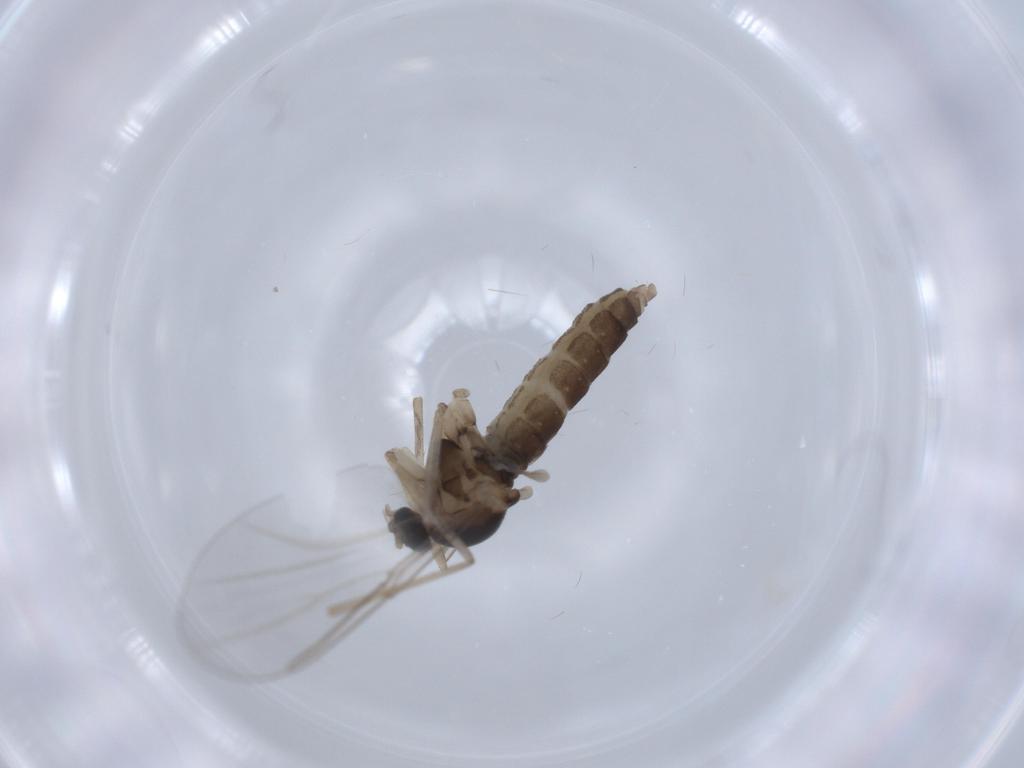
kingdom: Animalia
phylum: Arthropoda
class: Insecta
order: Diptera
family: Cecidomyiidae
